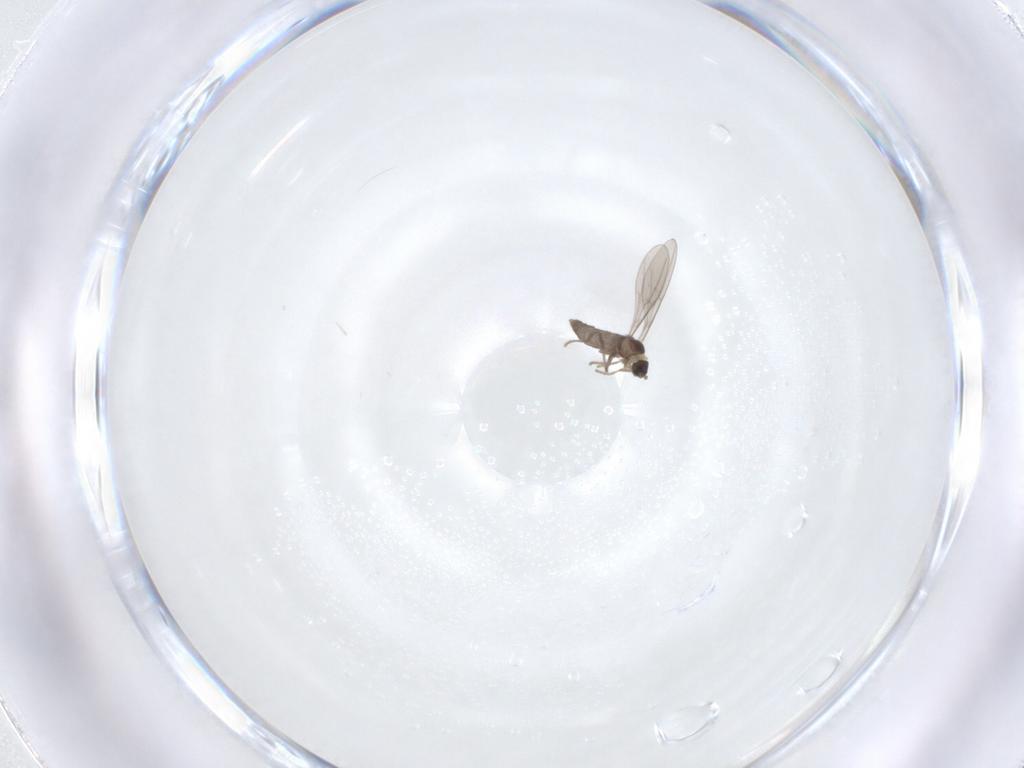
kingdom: Animalia
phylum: Arthropoda
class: Insecta
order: Diptera
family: Cecidomyiidae
